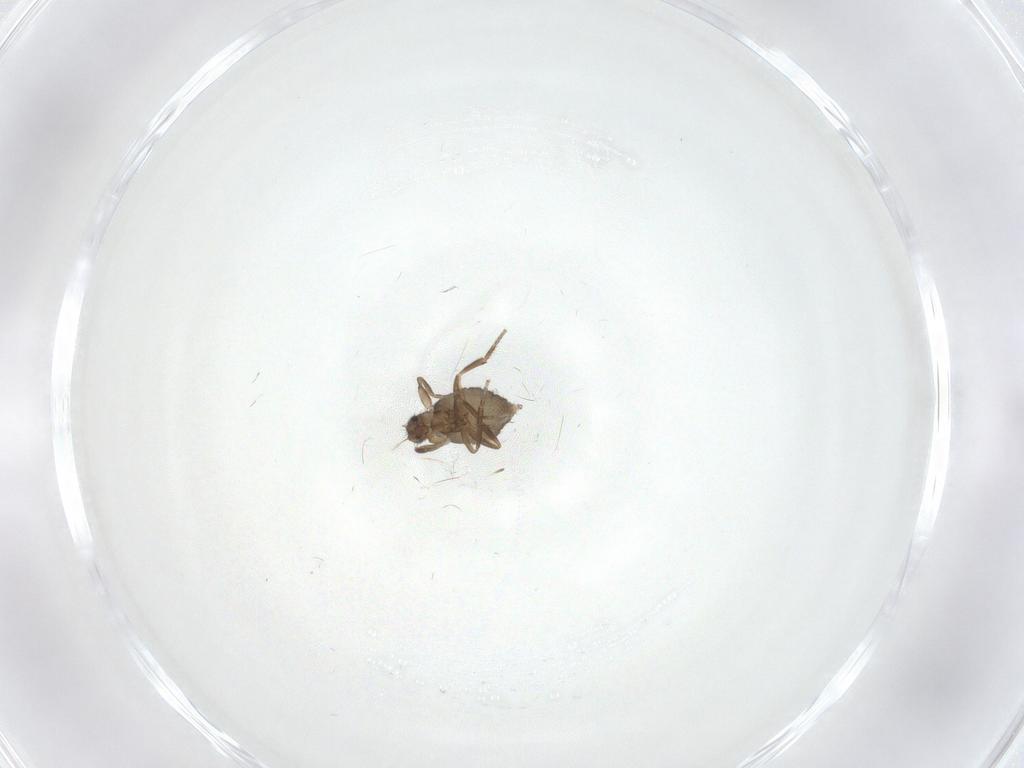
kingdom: Animalia
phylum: Arthropoda
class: Insecta
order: Diptera
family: Chironomidae
